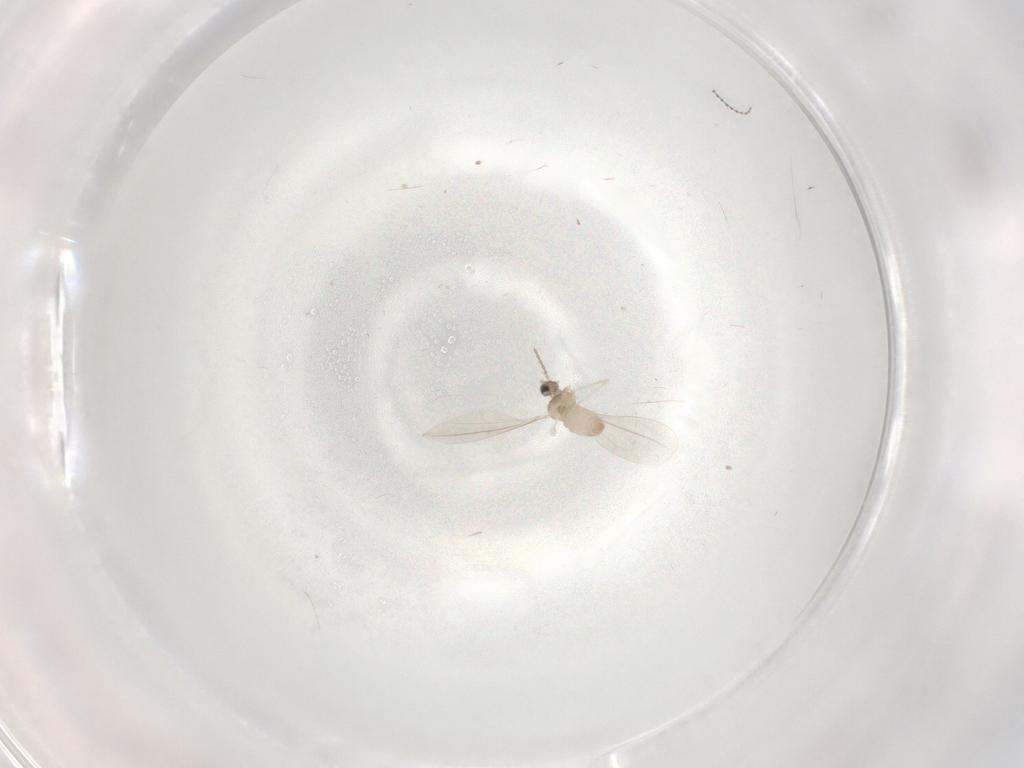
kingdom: Animalia
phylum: Arthropoda
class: Insecta
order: Diptera
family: Cecidomyiidae
